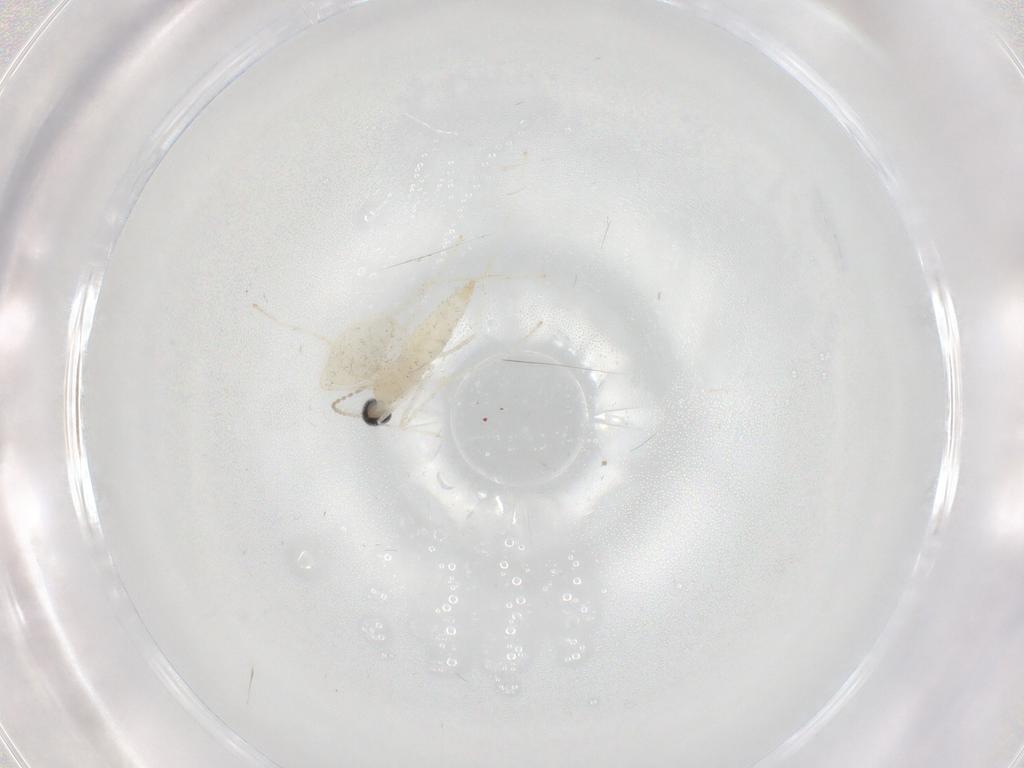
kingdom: Animalia
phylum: Arthropoda
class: Insecta
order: Diptera
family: Cecidomyiidae
